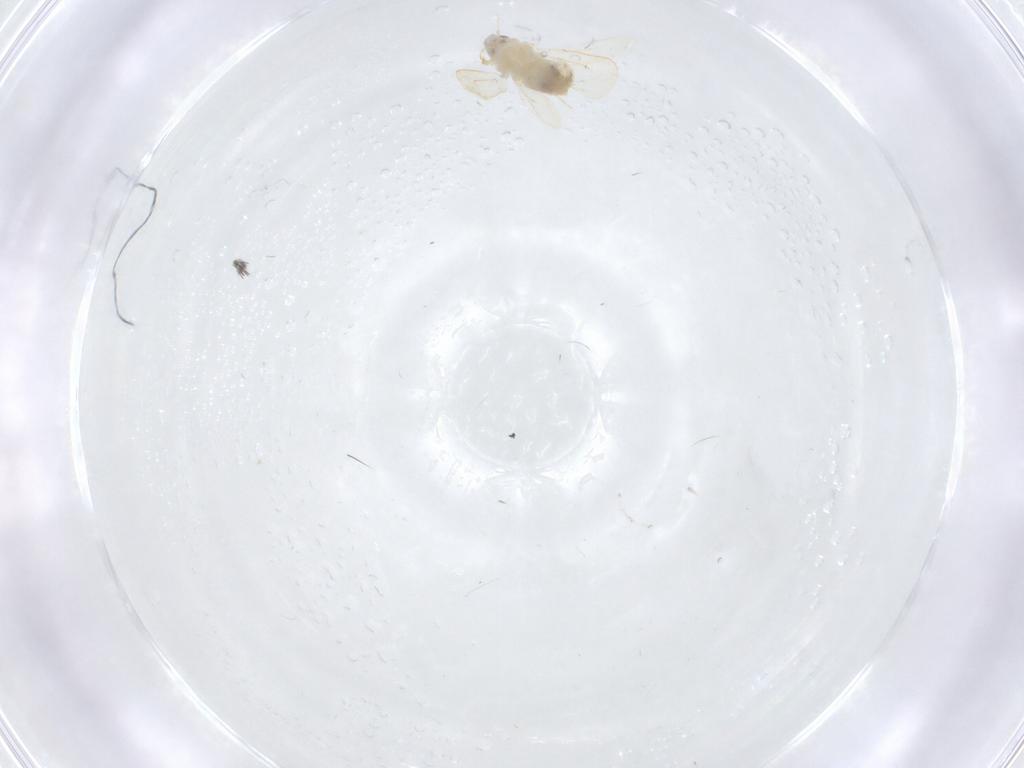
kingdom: Animalia
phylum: Arthropoda
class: Insecta
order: Hemiptera
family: Aleyrodidae
